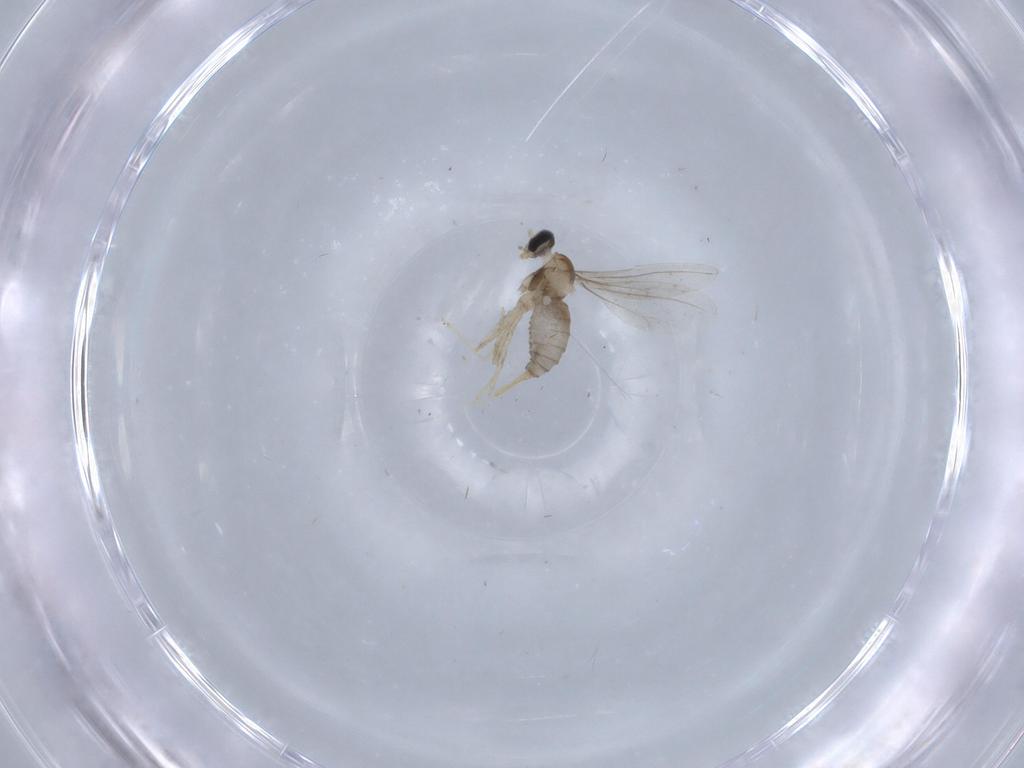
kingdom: Animalia
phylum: Arthropoda
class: Insecta
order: Diptera
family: Cecidomyiidae
